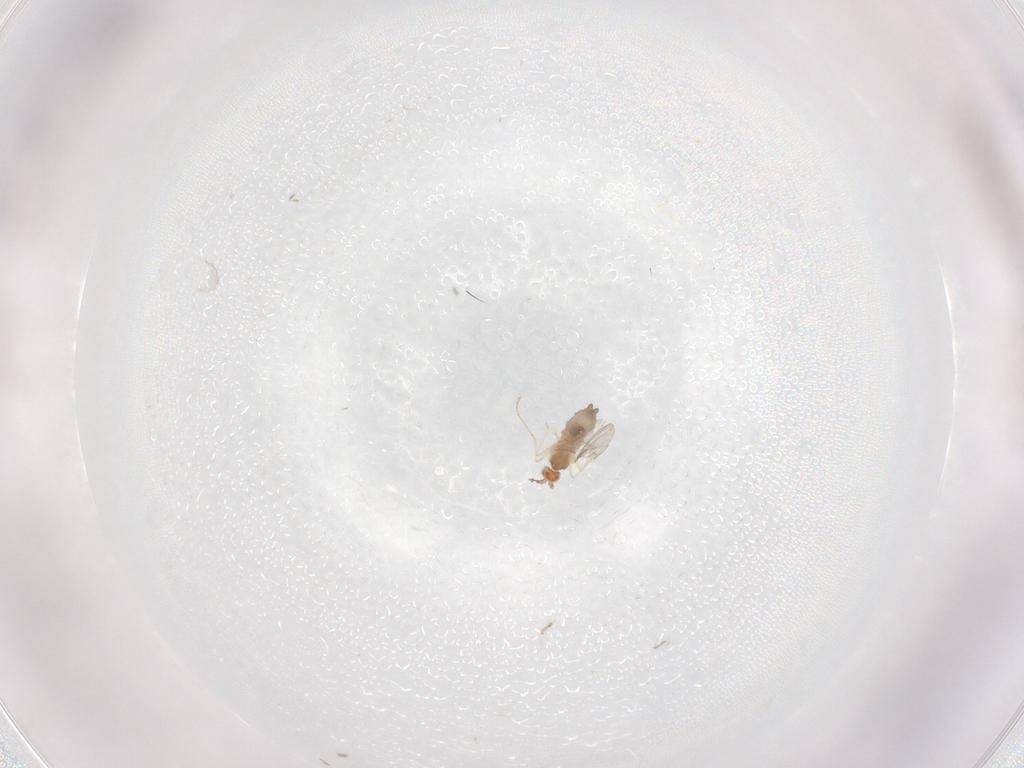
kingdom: Animalia
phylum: Arthropoda
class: Insecta
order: Diptera
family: Cecidomyiidae
